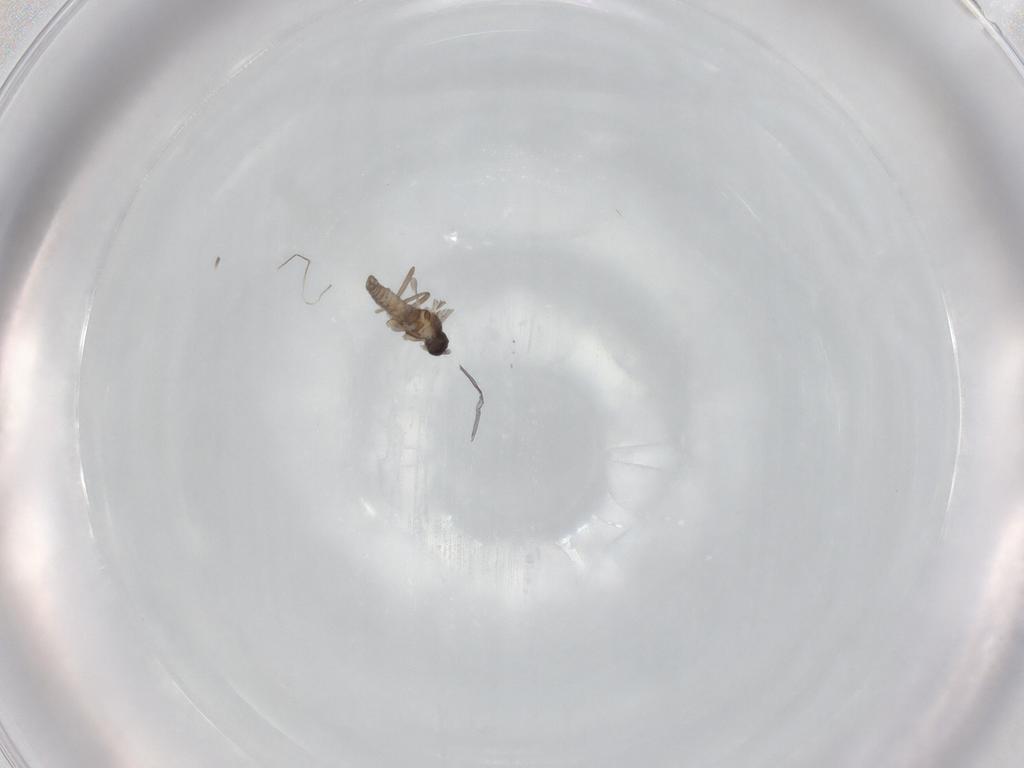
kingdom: Animalia
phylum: Arthropoda
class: Insecta
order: Diptera
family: Cecidomyiidae
